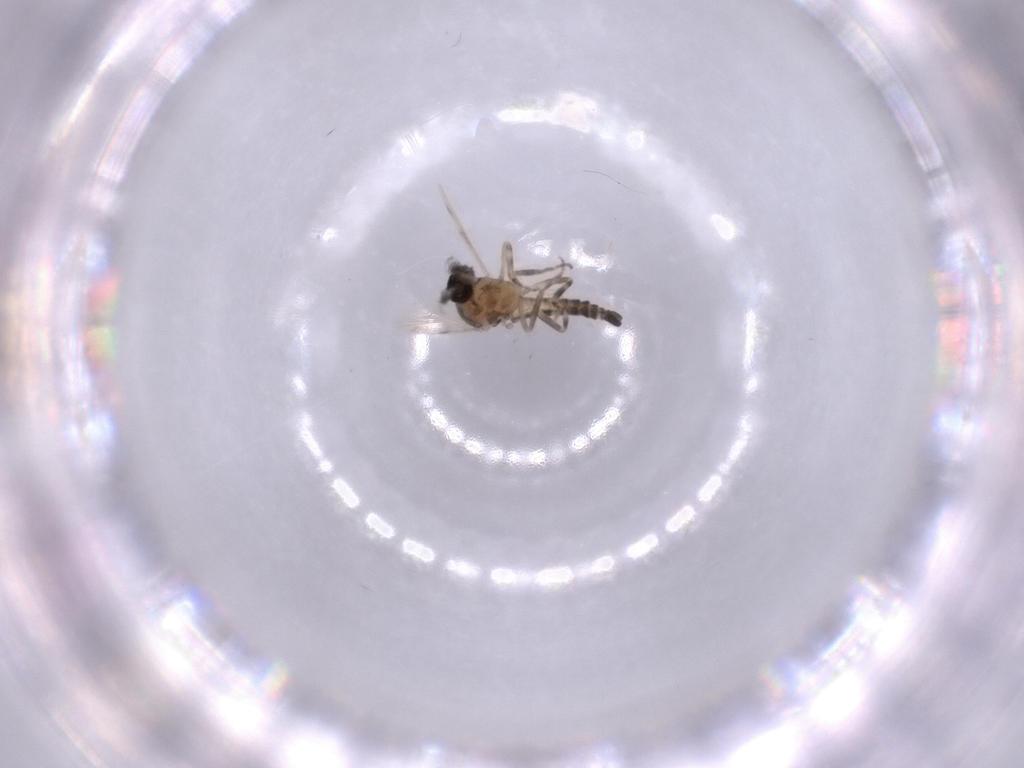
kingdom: Animalia
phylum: Arthropoda
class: Insecta
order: Diptera
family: Ceratopogonidae
